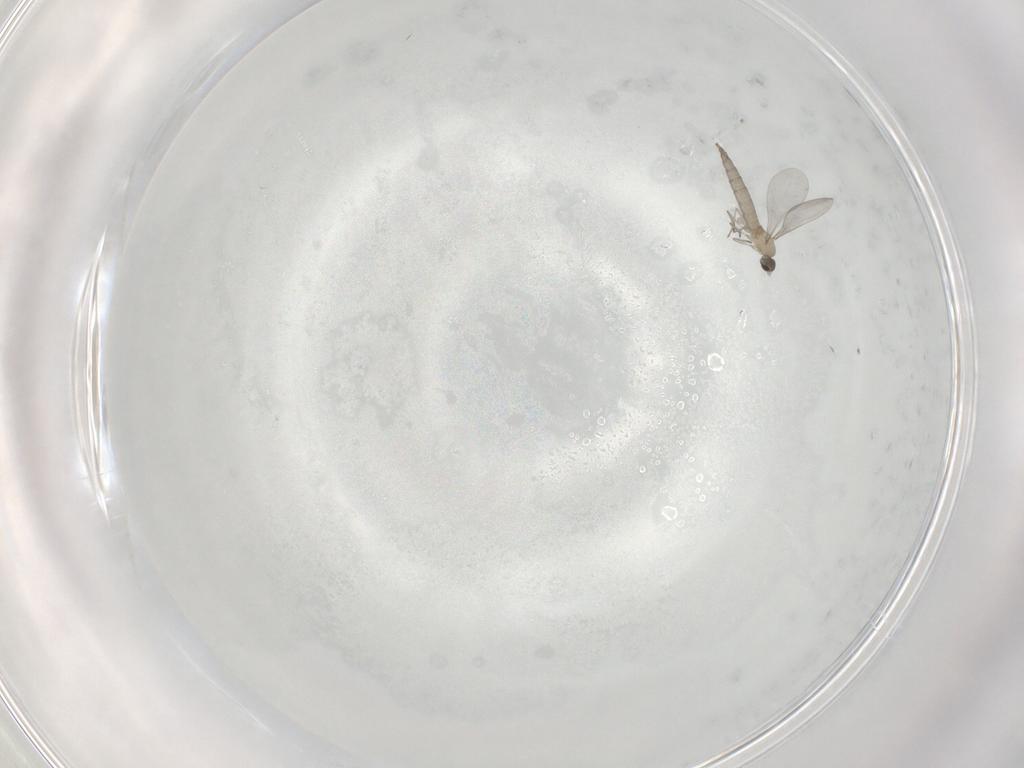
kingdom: Animalia
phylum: Arthropoda
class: Insecta
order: Diptera
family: Cecidomyiidae
